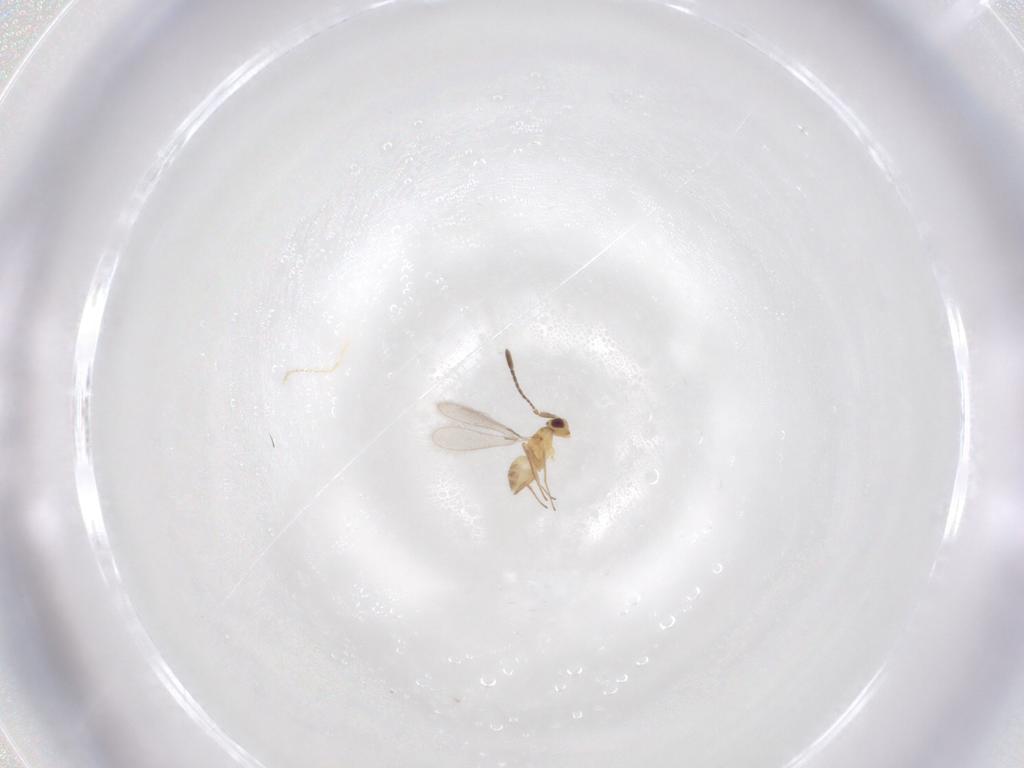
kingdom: Animalia
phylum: Arthropoda
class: Insecta
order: Hymenoptera
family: Mymaridae
